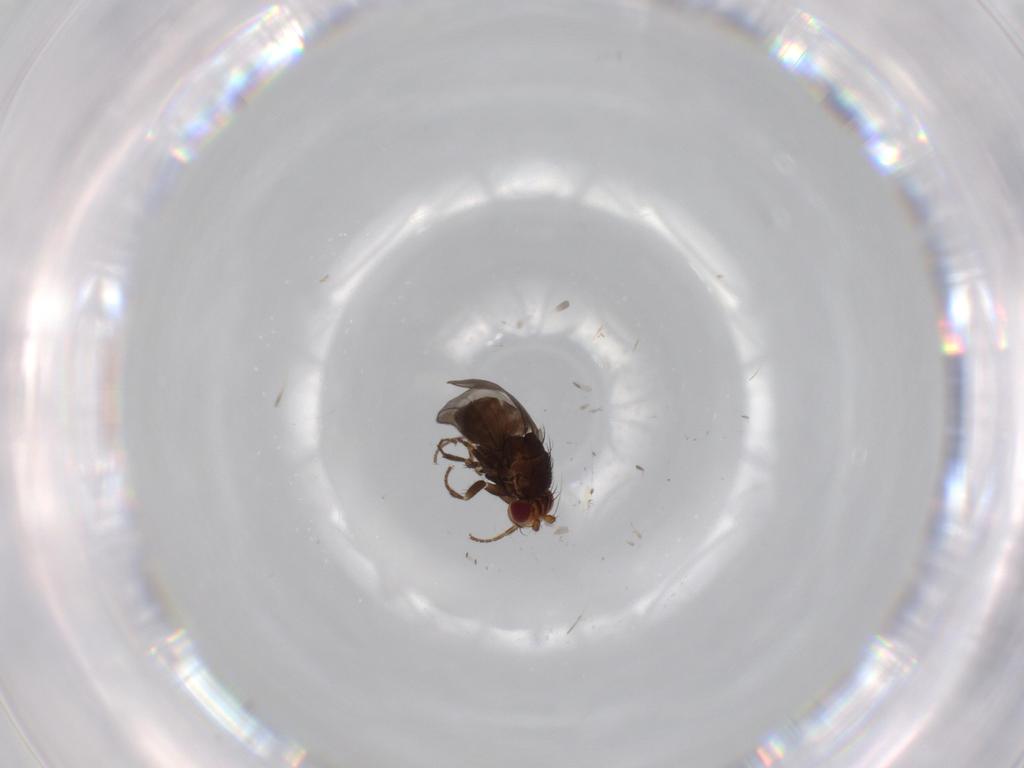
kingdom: Animalia
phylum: Arthropoda
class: Insecta
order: Diptera
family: Sphaeroceridae
